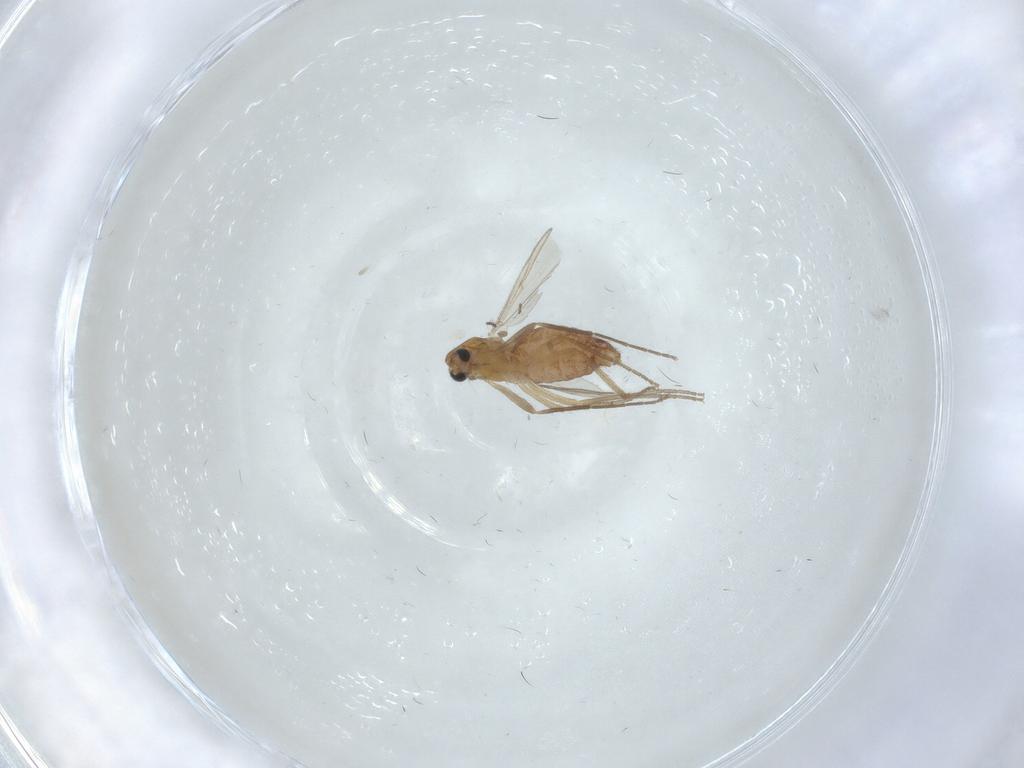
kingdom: Animalia
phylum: Arthropoda
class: Insecta
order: Diptera
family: Chironomidae
